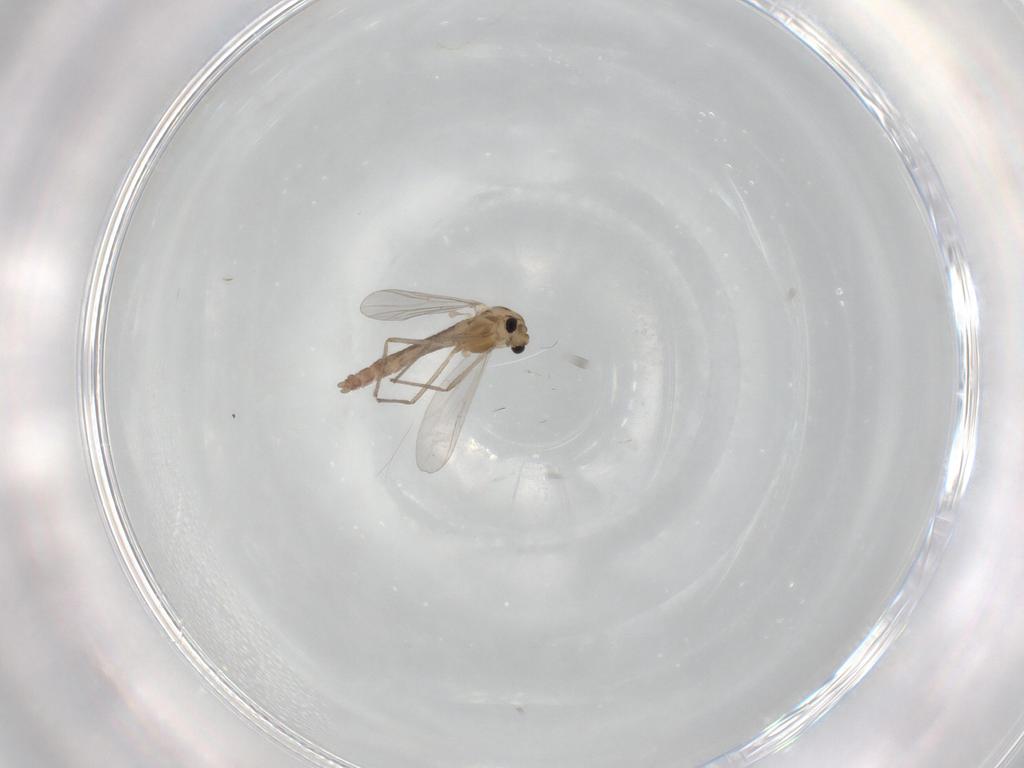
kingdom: Animalia
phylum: Arthropoda
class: Insecta
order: Diptera
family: Chironomidae
